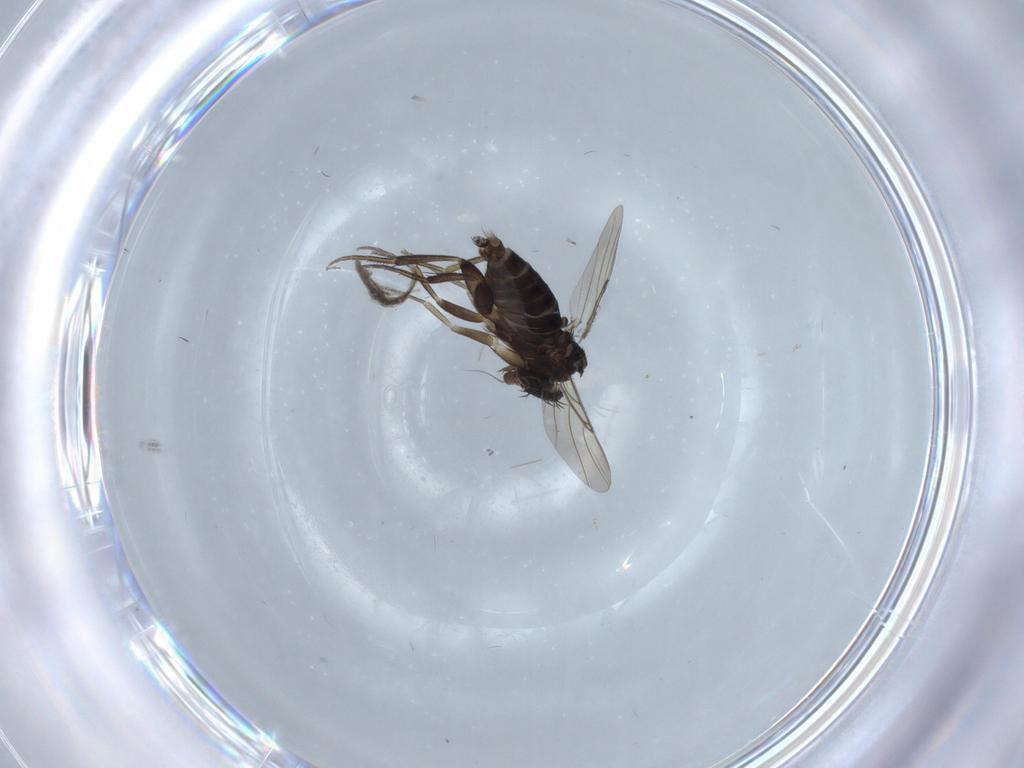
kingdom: Animalia
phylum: Arthropoda
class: Insecta
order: Diptera
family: Phoridae
